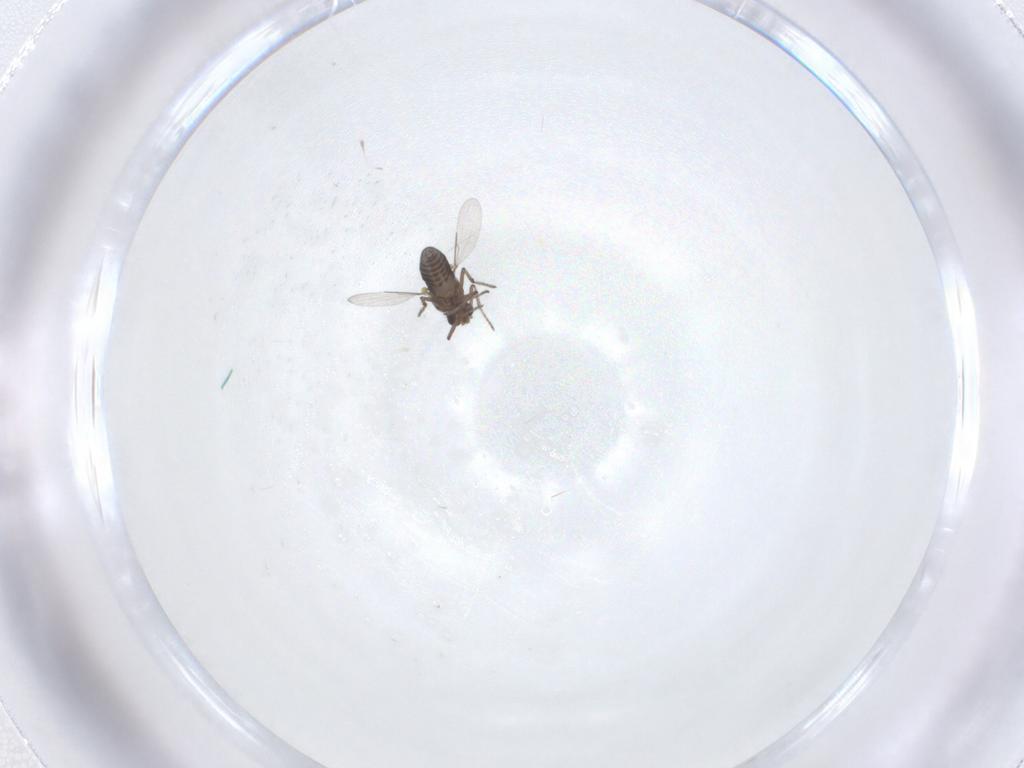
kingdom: Animalia
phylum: Arthropoda
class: Insecta
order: Diptera
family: Ceratopogonidae
